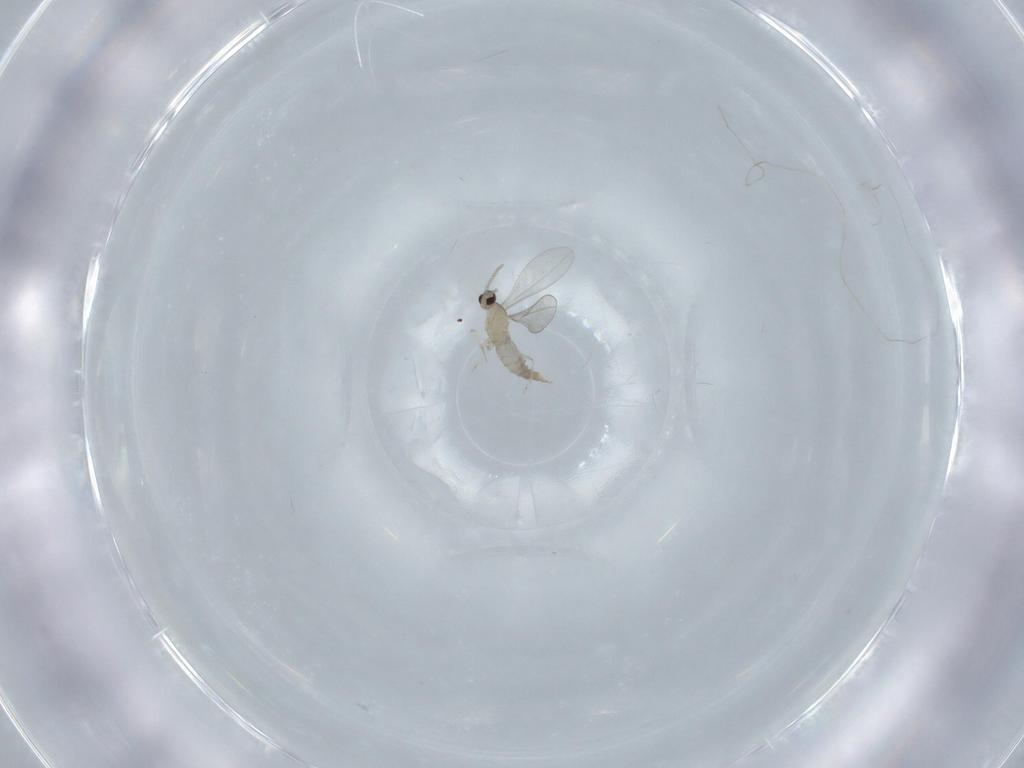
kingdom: Animalia
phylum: Arthropoda
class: Insecta
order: Diptera
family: Cecidomyiidae
